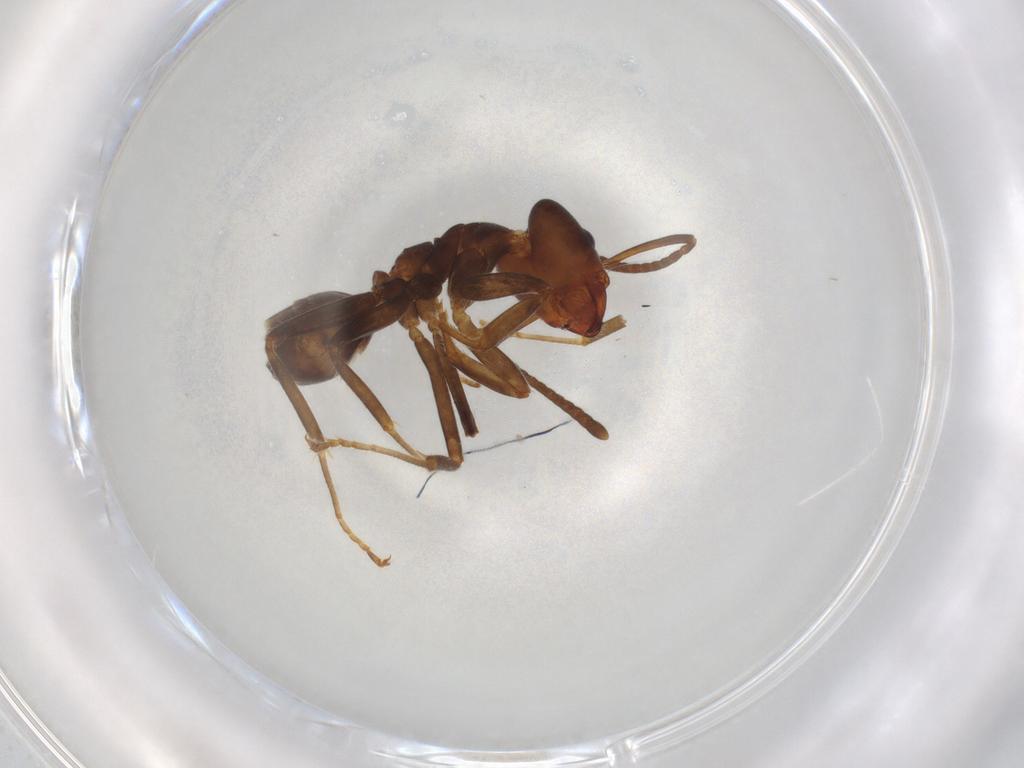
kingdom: Animalia
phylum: Arthropoda
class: Insecta
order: Hymenoptera
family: Formicidae
